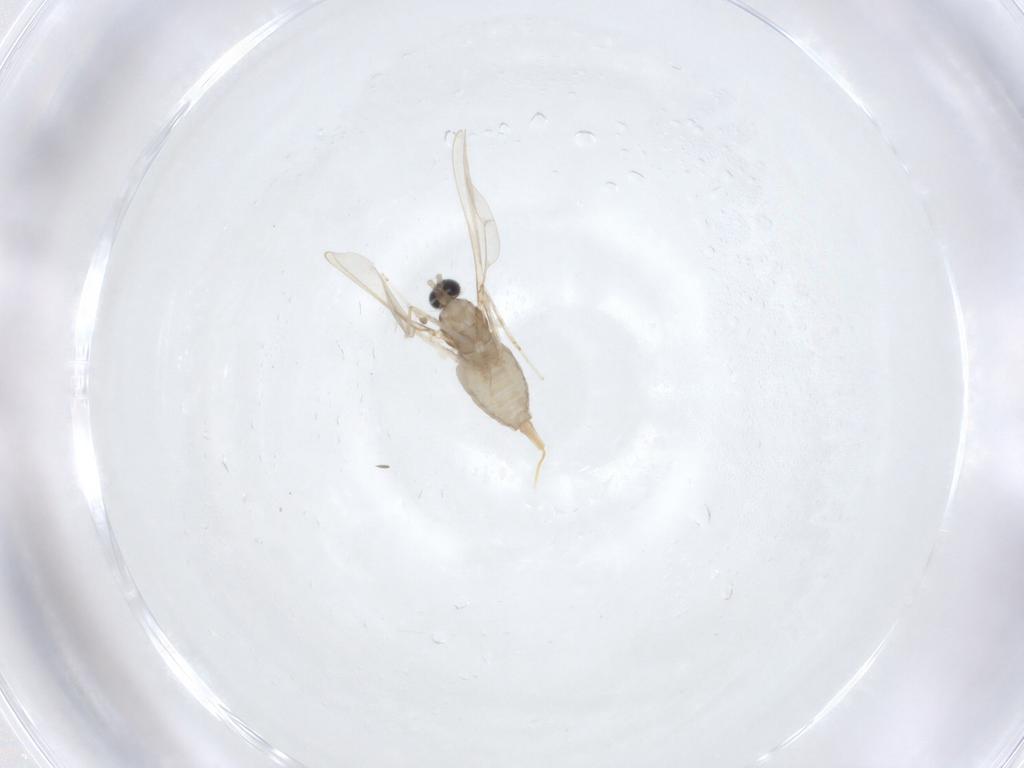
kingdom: Animalia
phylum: Arthropoda
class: Insecta
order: Diptera
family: Cecidomyiidae
